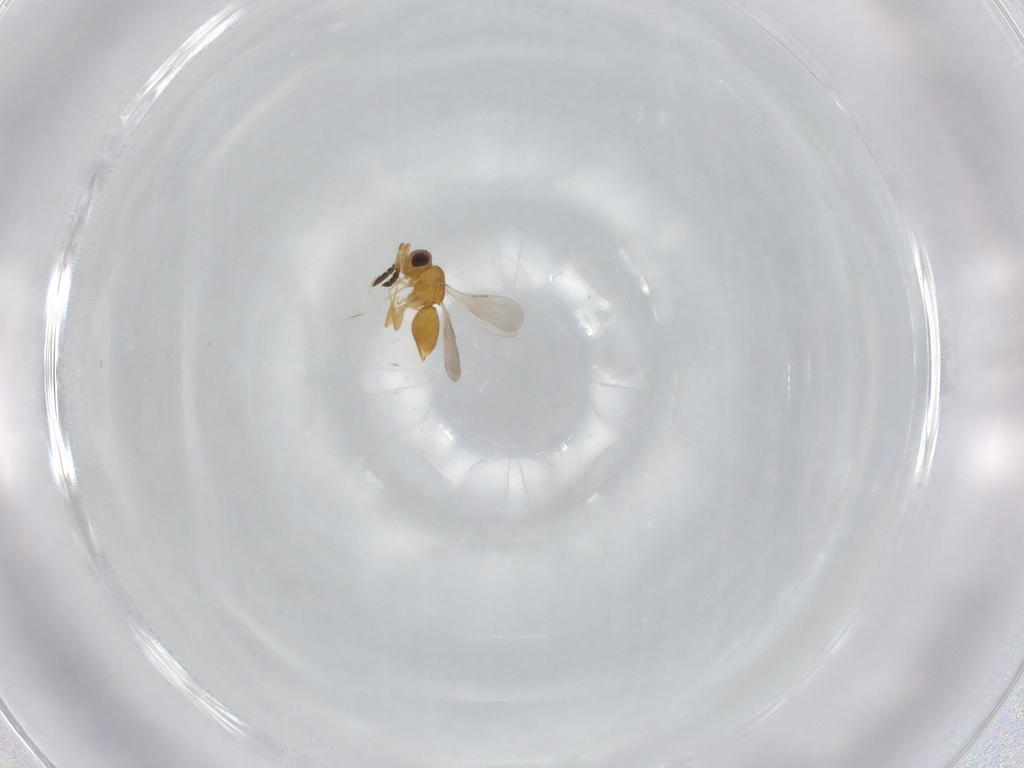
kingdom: Animalia
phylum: Arthropoda
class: Insecta
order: Hymenoptera
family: Ceraphronidae
